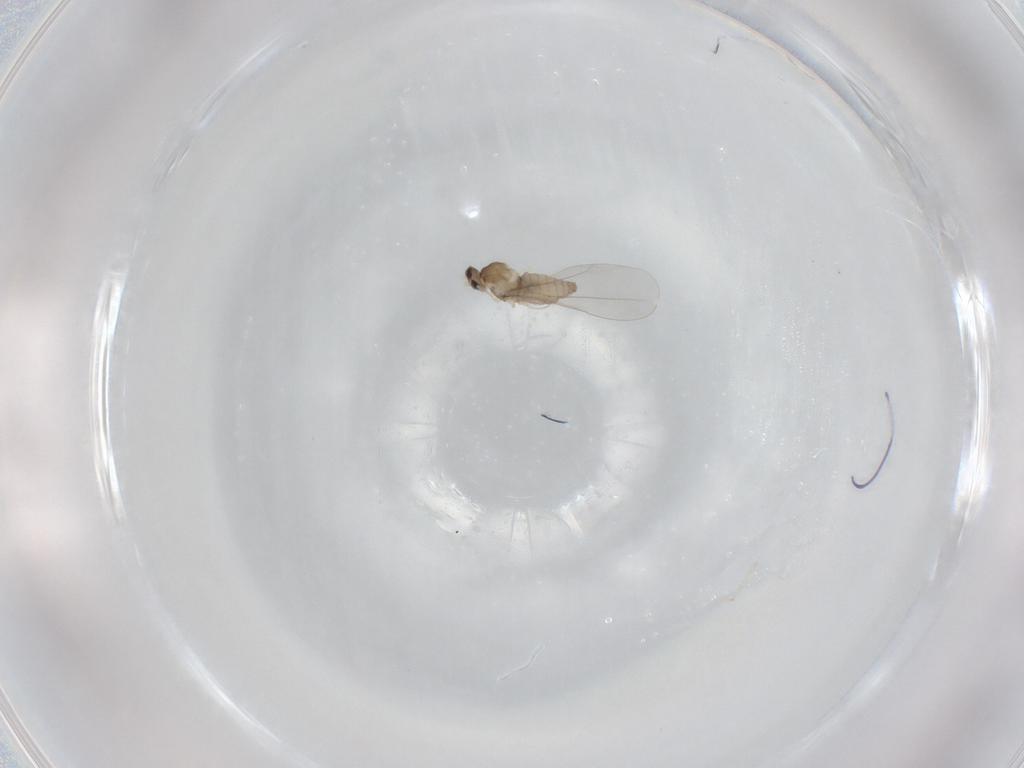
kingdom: Animalia
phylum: Arthropoda
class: Insecta
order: Diptera
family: Cecidomyiidae
